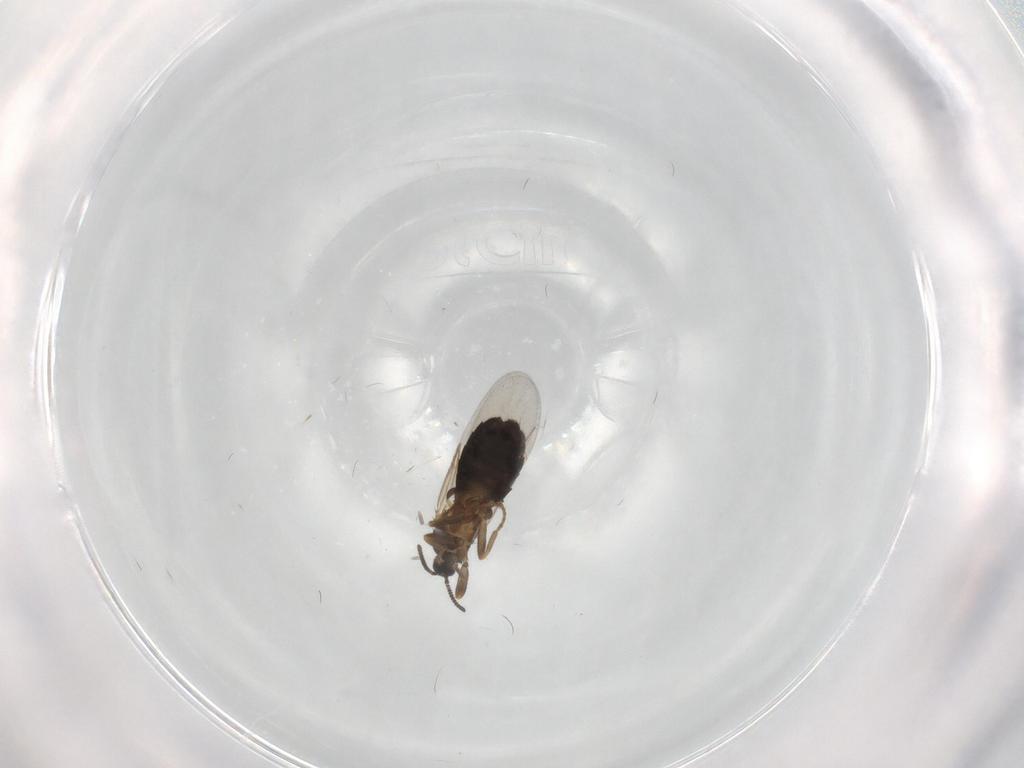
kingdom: Animalia
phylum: Arthropoda
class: Insecta
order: Diptera
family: Scatopsidae
